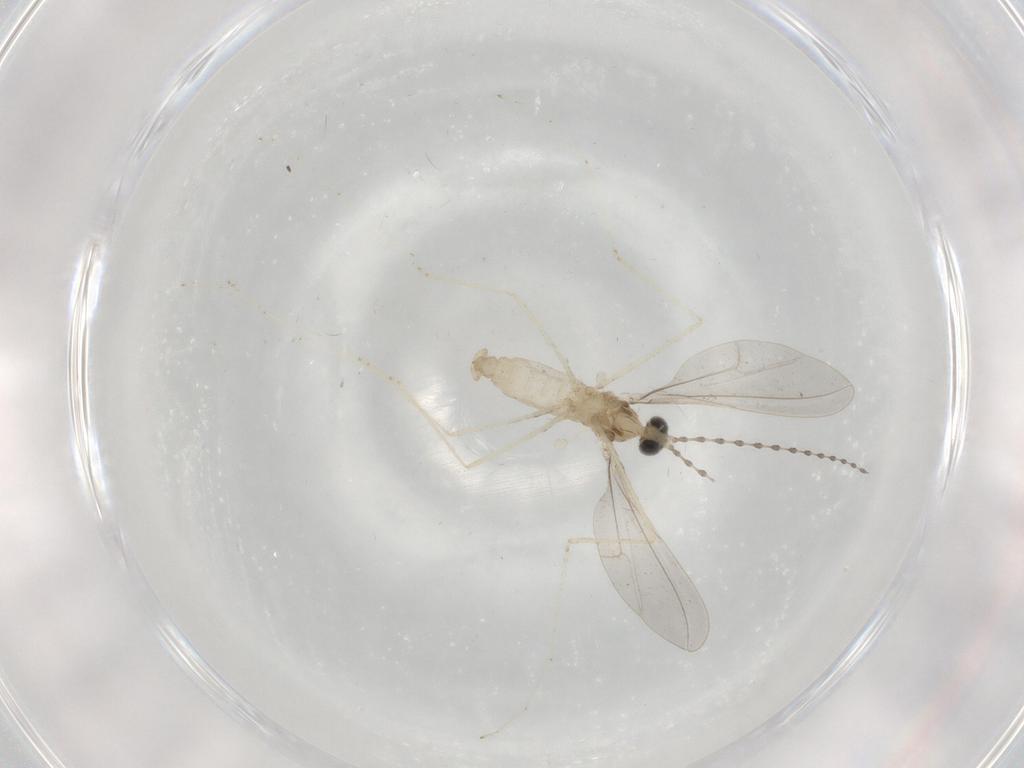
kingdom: Animalia
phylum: Arthropoda
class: Insecta
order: Diptera
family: Cecidomyiidae
